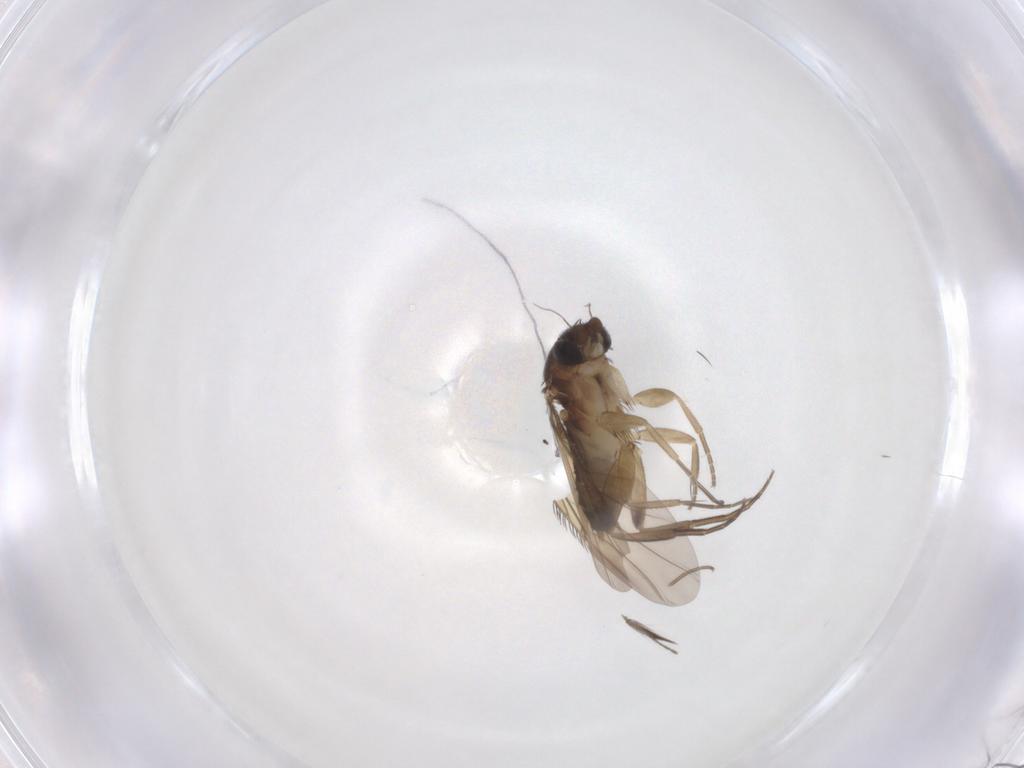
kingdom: Animalia
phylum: Arthropoda
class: Insecta
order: Diptera
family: Phoridae
